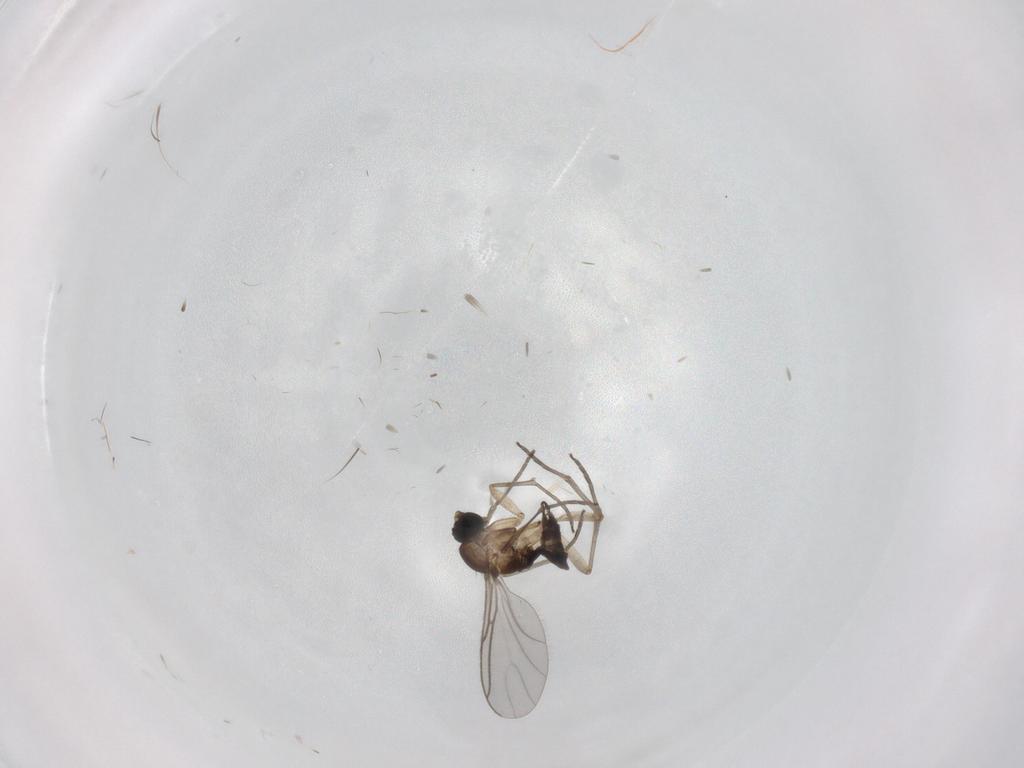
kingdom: Animalia
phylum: Arthropoda
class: Insecta
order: Diptera
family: Sciaridae
